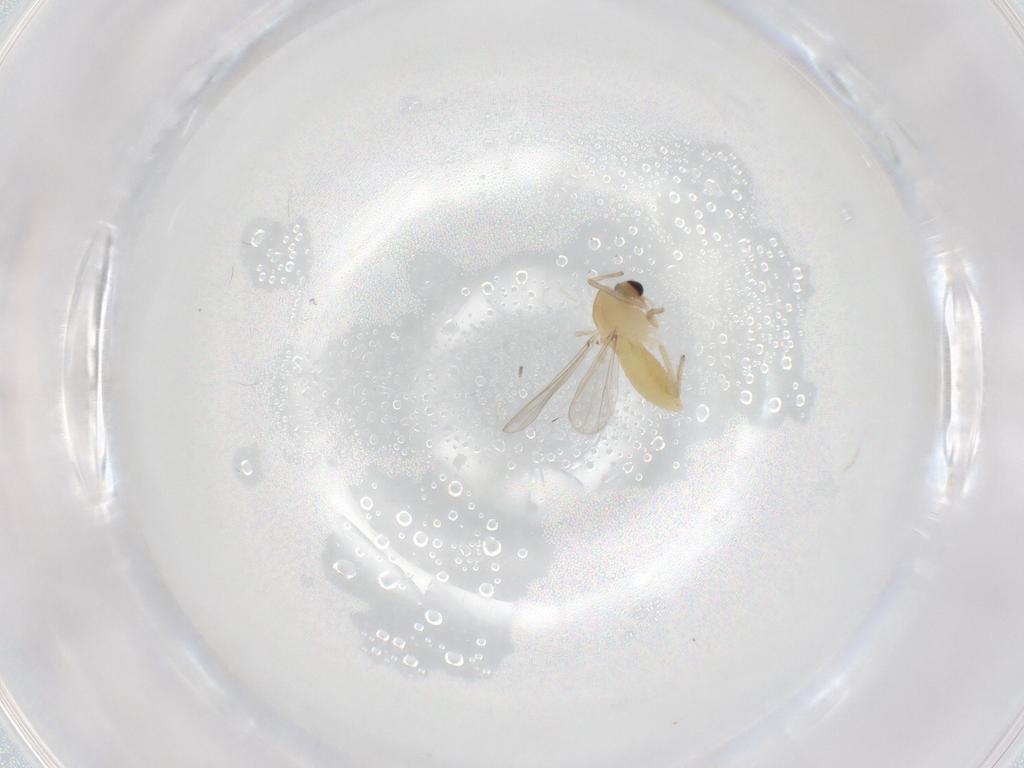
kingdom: Animalia
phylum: Arthropoda
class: Insecta
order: Diptera
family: Chironomidae
